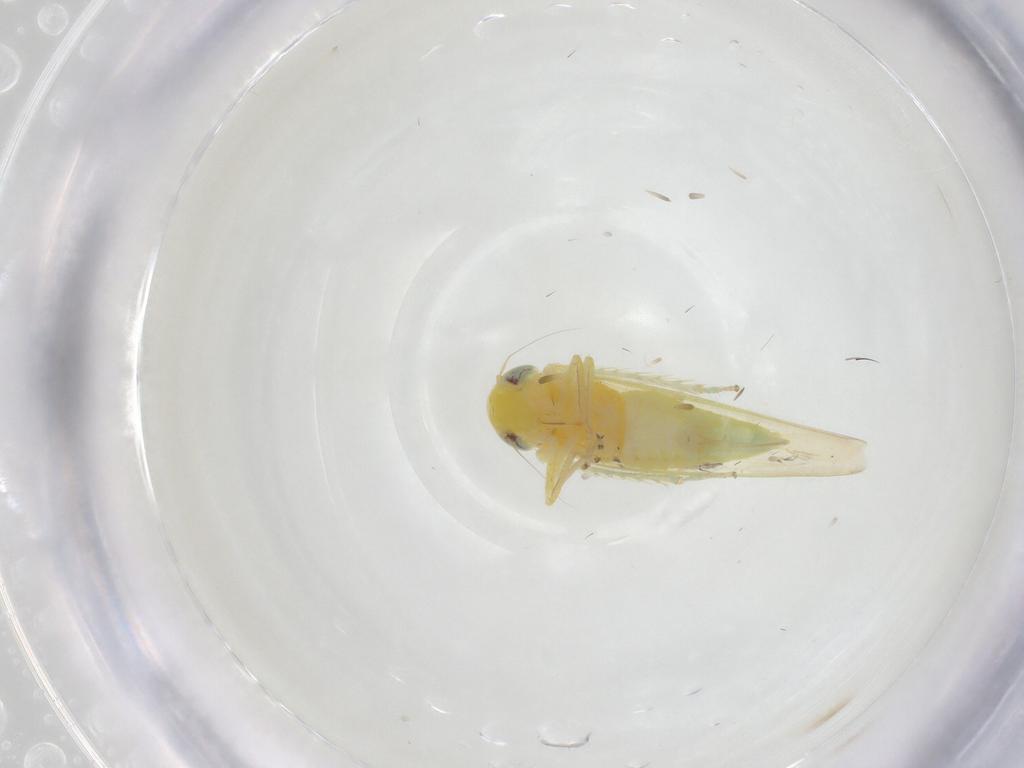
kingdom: Animalia
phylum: Arthropoda
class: Insecta
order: Hemiptera
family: Cicadellidae
